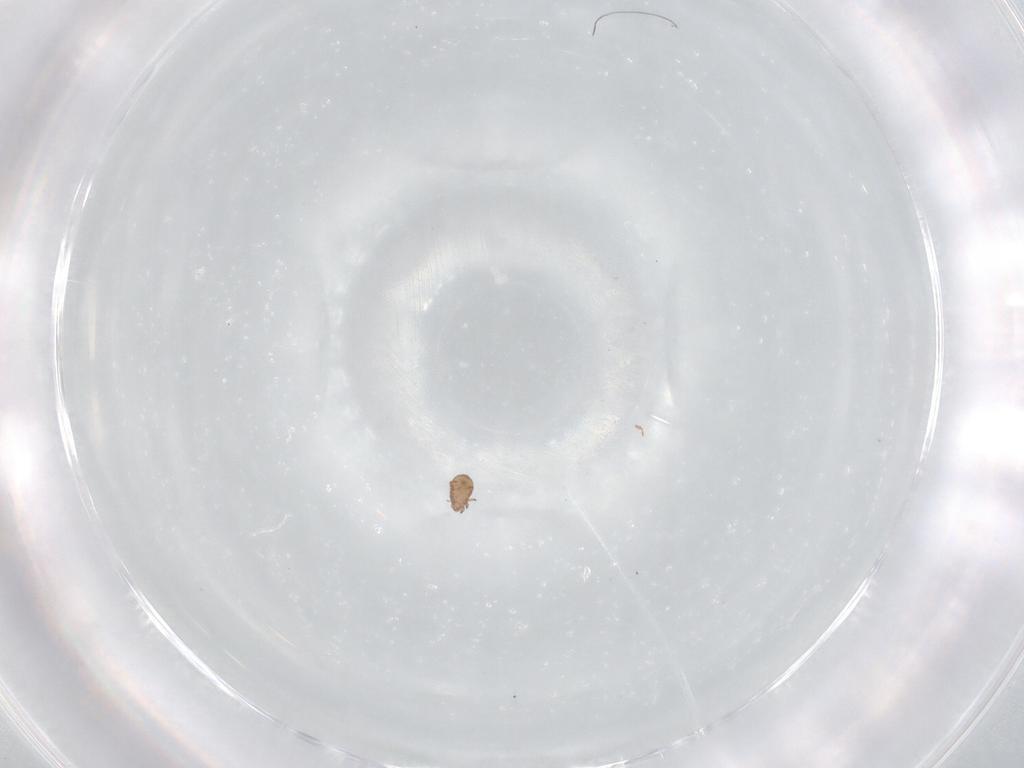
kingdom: Animalia
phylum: Arthropoda
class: Arachnida
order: Sarcoptiformes
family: Eremaeidae
